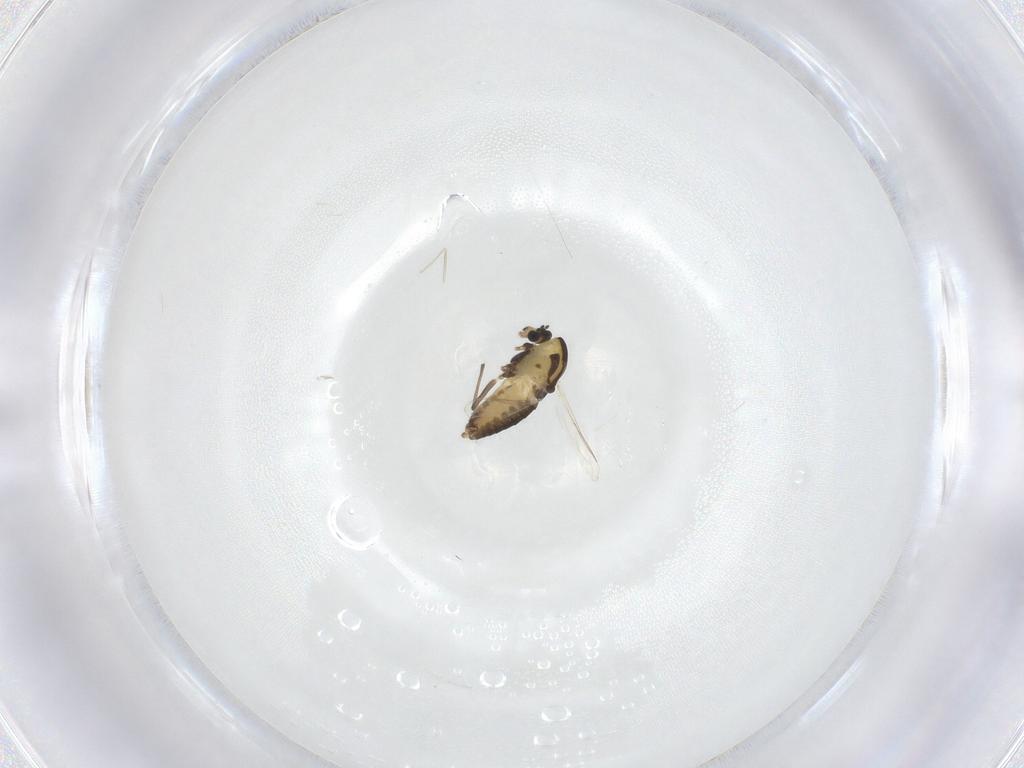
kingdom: Animalia
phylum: Arthropoda
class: Insecta
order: Diptera
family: Chironomidae
